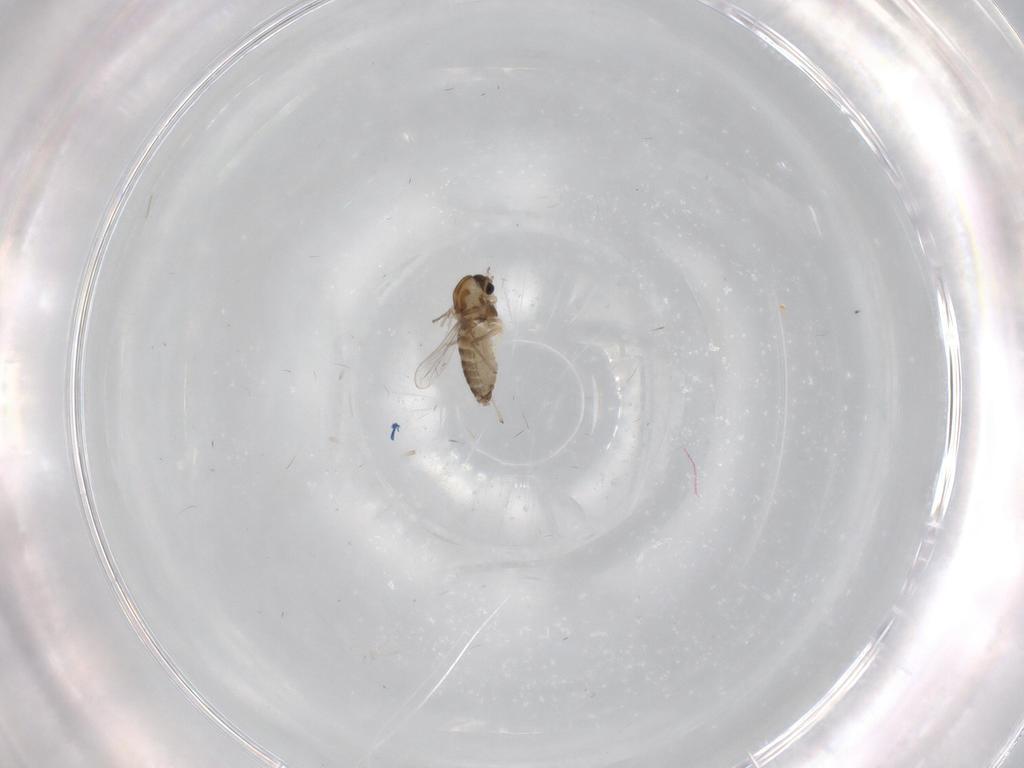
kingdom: Animalia
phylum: Arthropoda
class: Insecta
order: Diptera
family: Chironomidae
